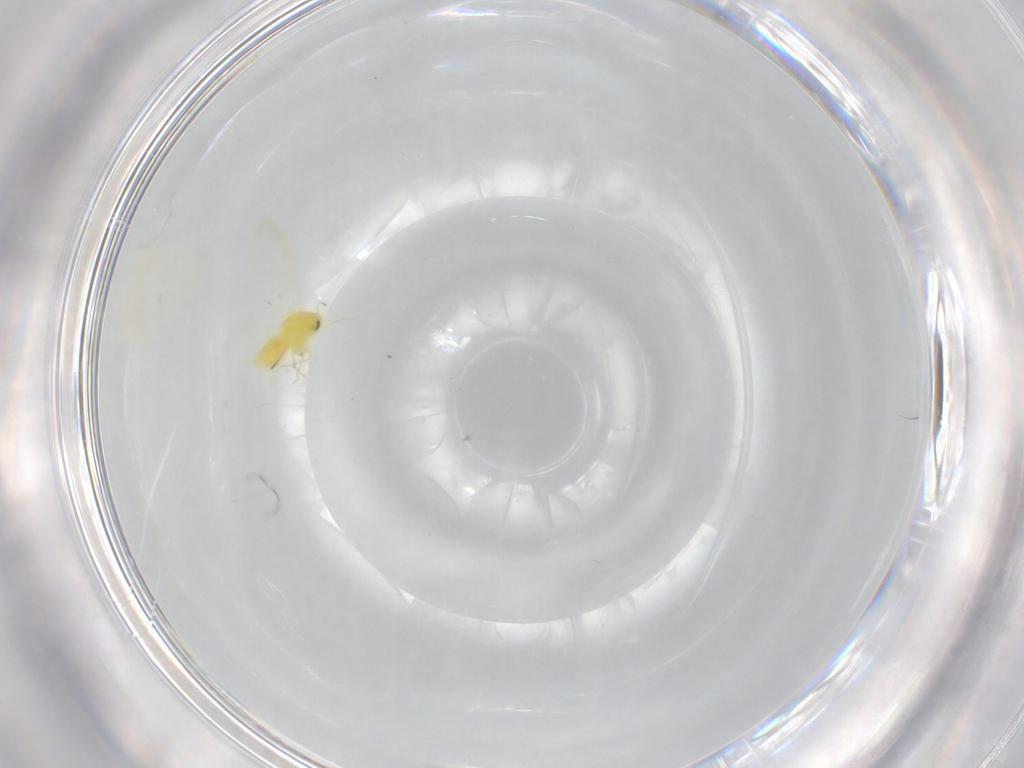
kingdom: Animalia
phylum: Arthropoda
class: Insecta
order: Hemiptera
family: Aleyrodidae
